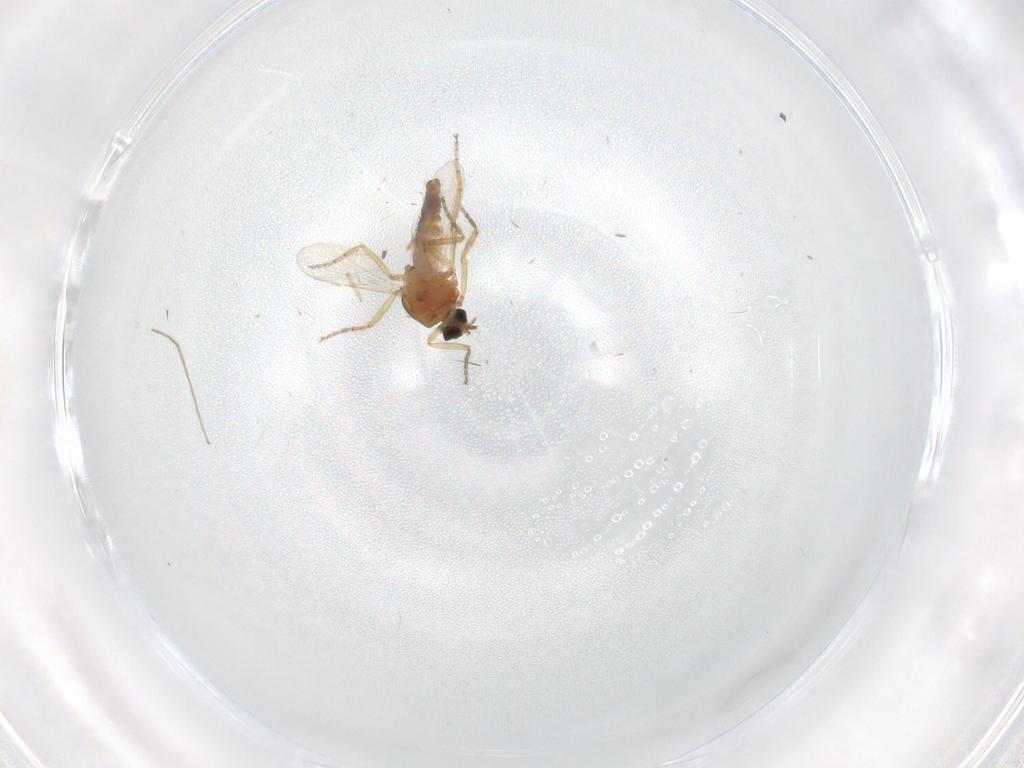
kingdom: Animalia
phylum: Arthropoda
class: Insecta
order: Diptera
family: Ceratopogonidae
